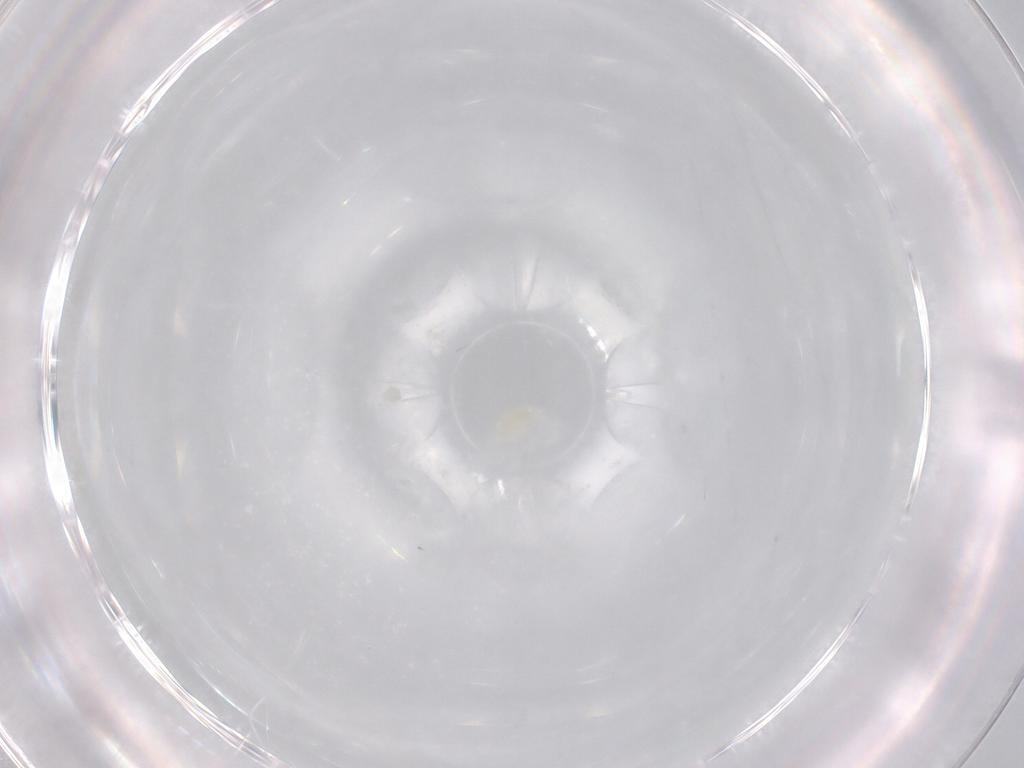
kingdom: Animalia
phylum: Arthropoda
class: Arachnida
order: Trombidiformes
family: Eupodidae
